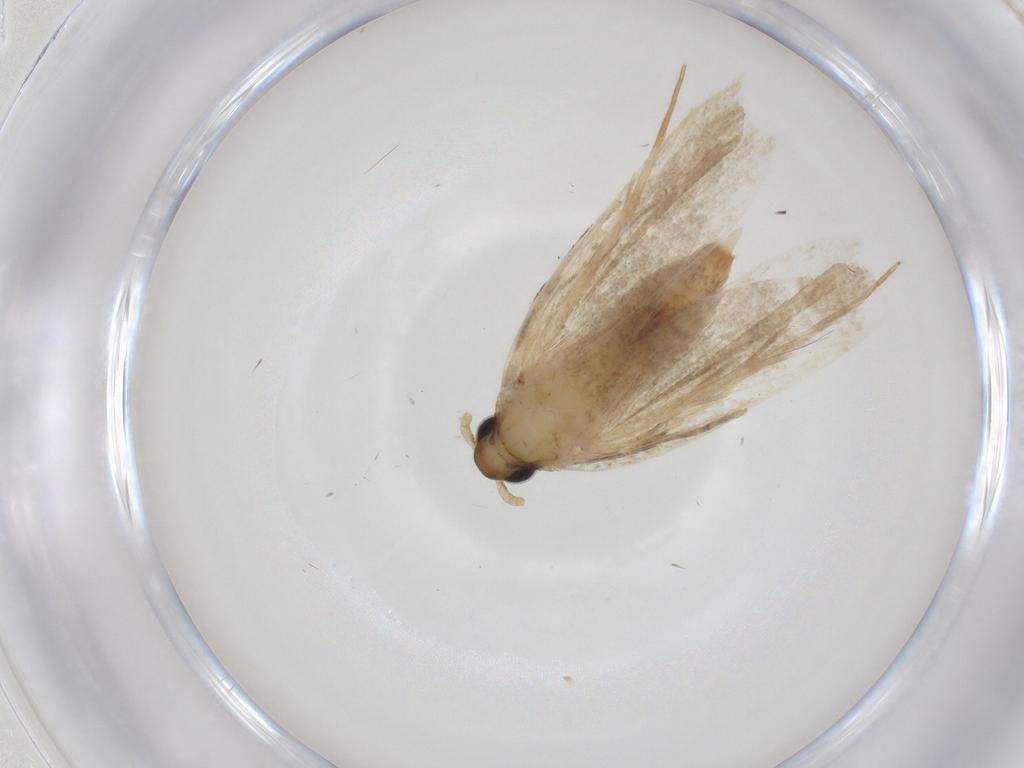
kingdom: Animalia
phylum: Arthropoda
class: Insecta
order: Lepidoptera
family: Lecithoceridae
